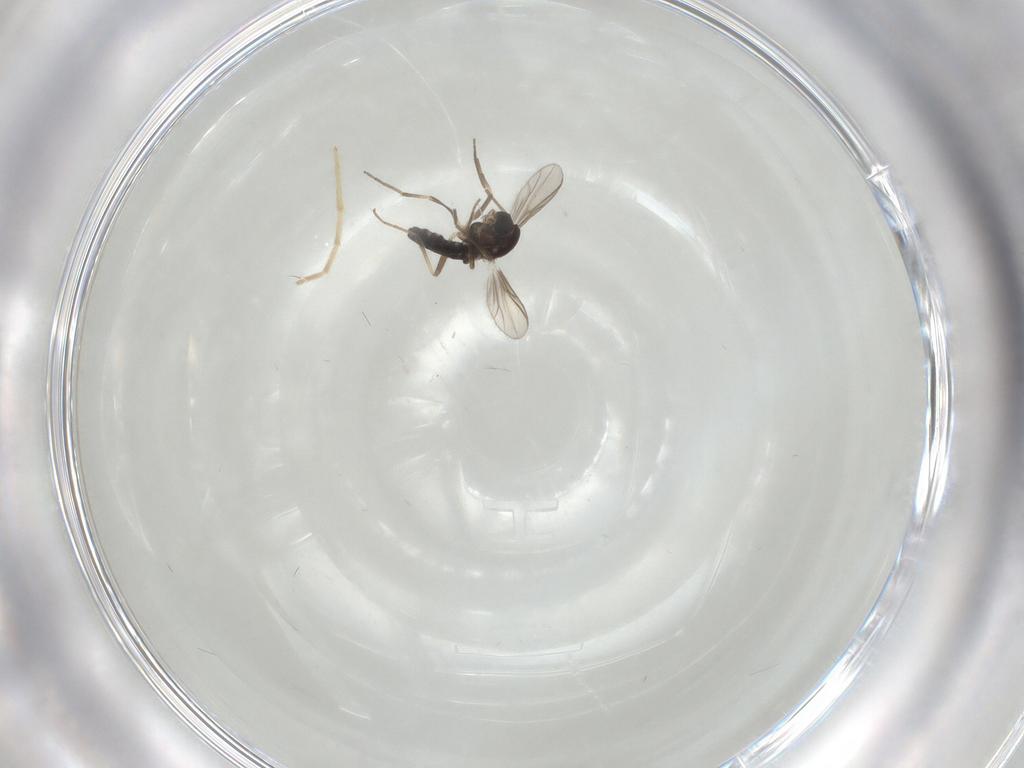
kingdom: Animalia
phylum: Arthropoda
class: Insecta
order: Diptera
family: Chironomidae
